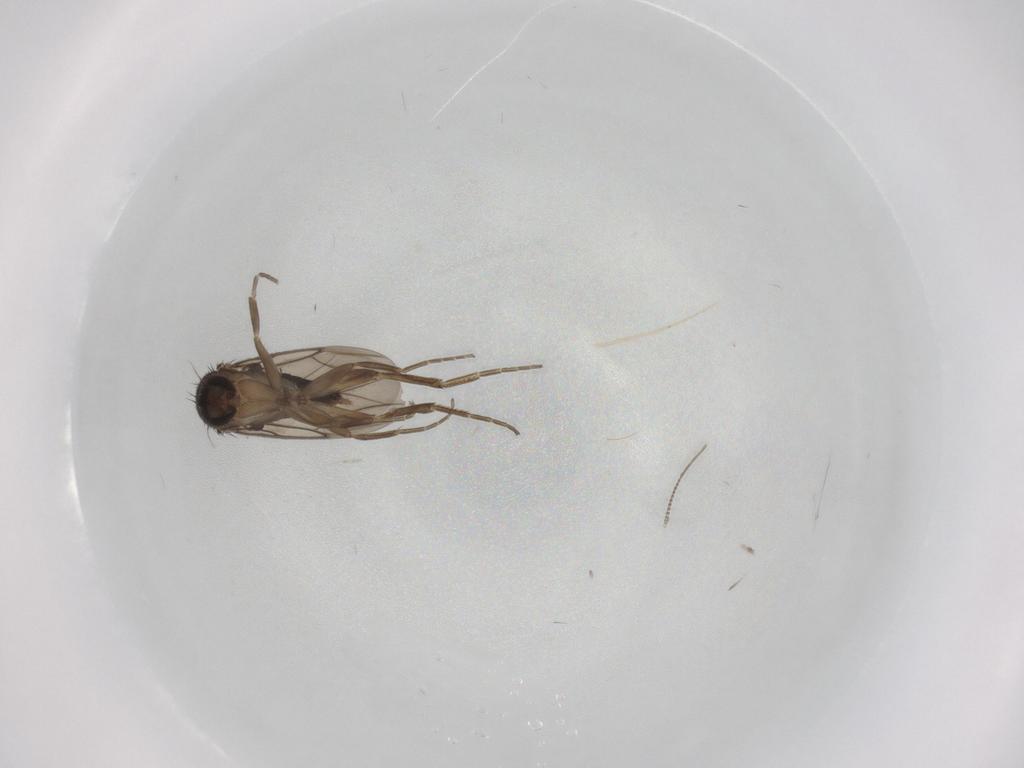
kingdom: Animalia
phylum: Arthropoda
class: Insecta
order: Diptera
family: Phoridae
